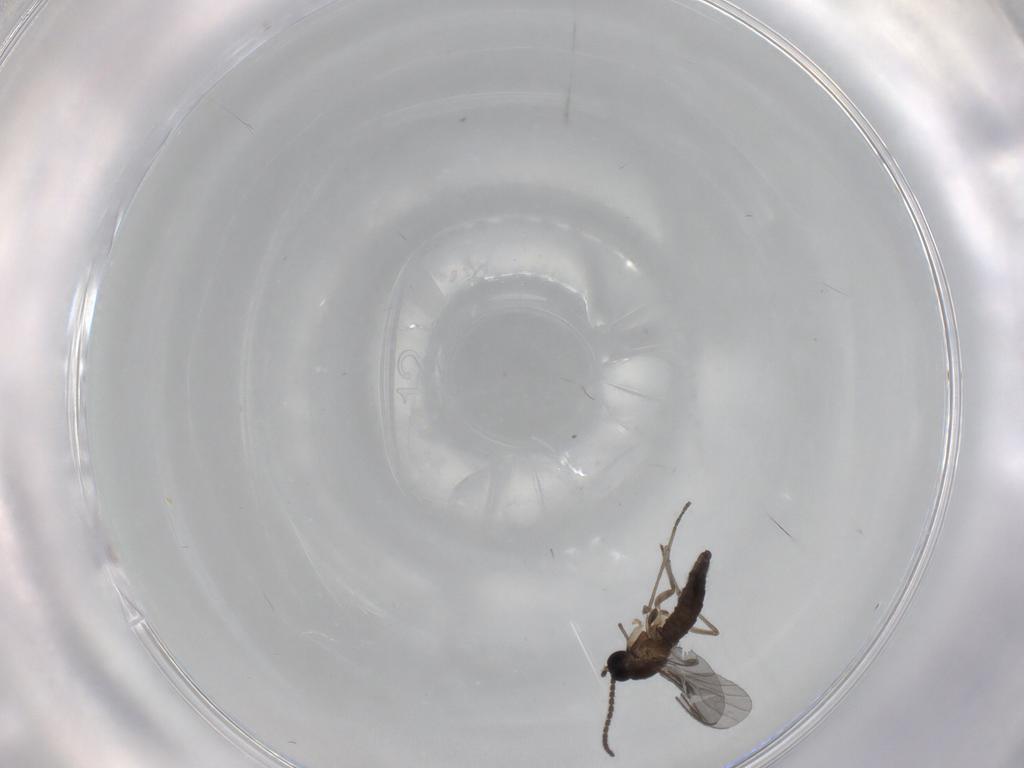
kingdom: Animalia
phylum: Arthropoda
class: Insecta
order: Diptera
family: Sciaridae
